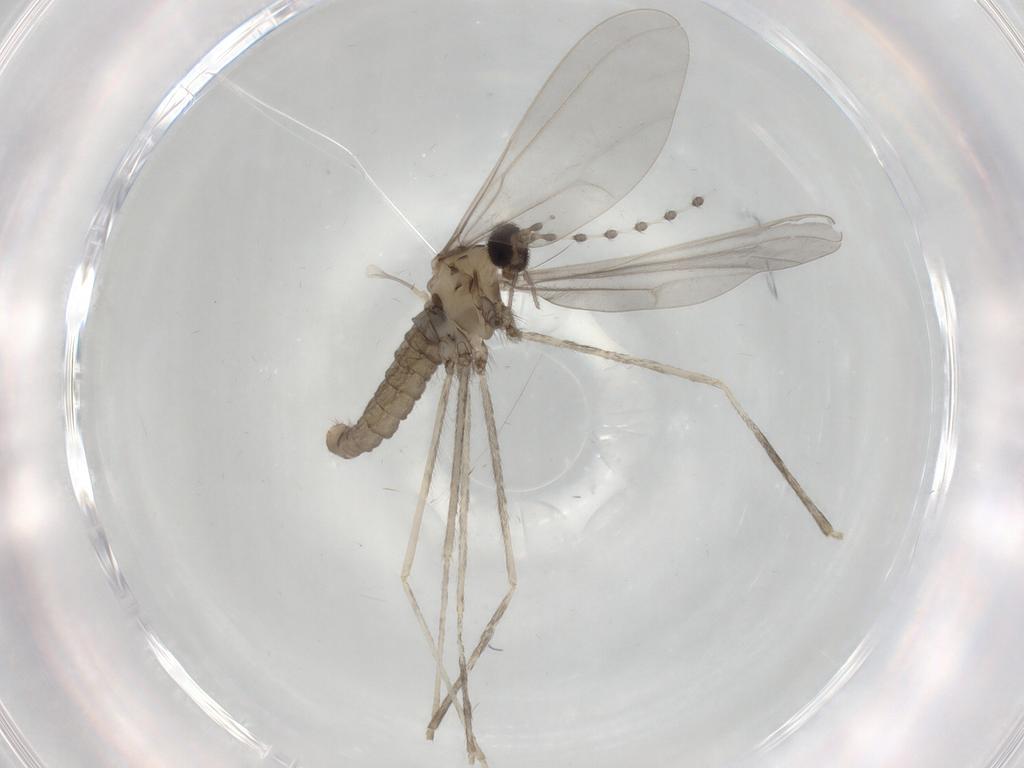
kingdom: Animalia
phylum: Arthropoda
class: Insecta
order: Diptera
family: Cecidomyiidae
